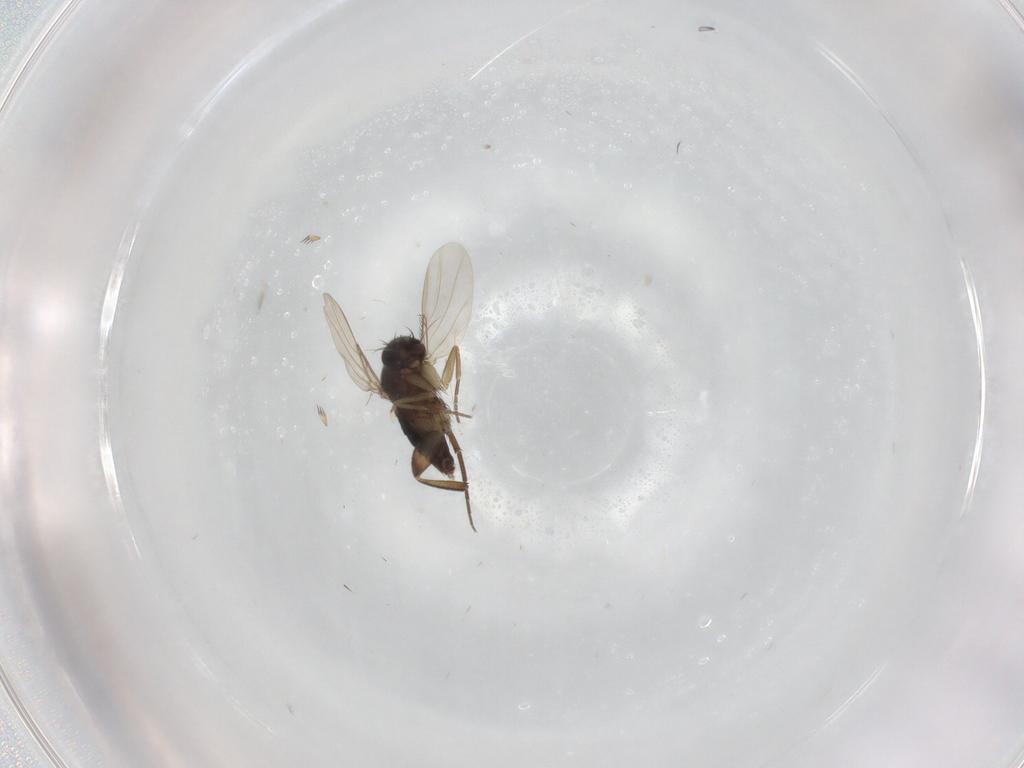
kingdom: Animalia
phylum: Arthropoda
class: Insecta
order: Diptera
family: Phoridae
